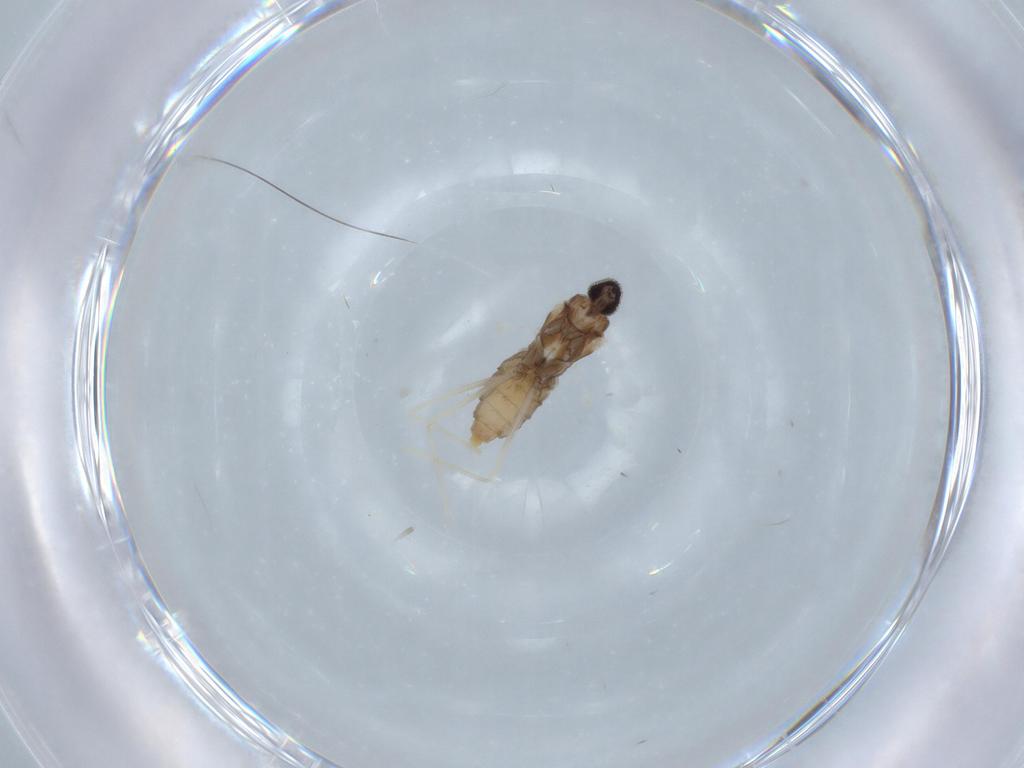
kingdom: Animalia
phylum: Arthropoda
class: Insecta
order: Diptera
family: Cecidomyiidae
